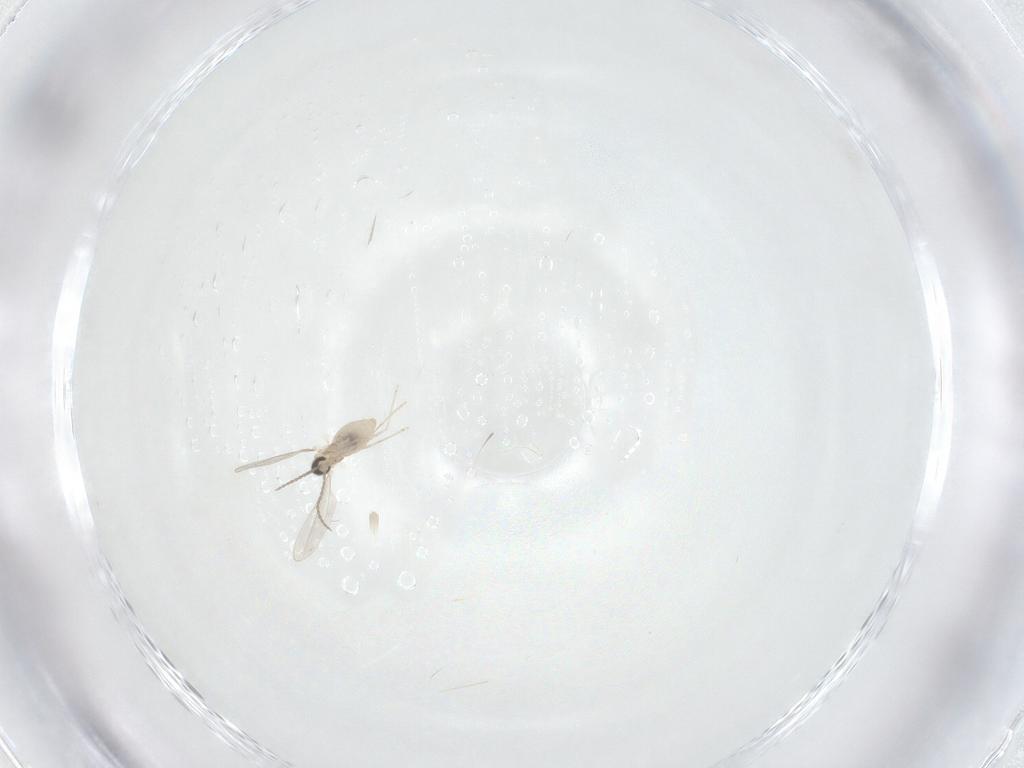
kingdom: Animalia
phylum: Arthropoda
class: Insecta
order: Diptera
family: Cecidomyiidae
